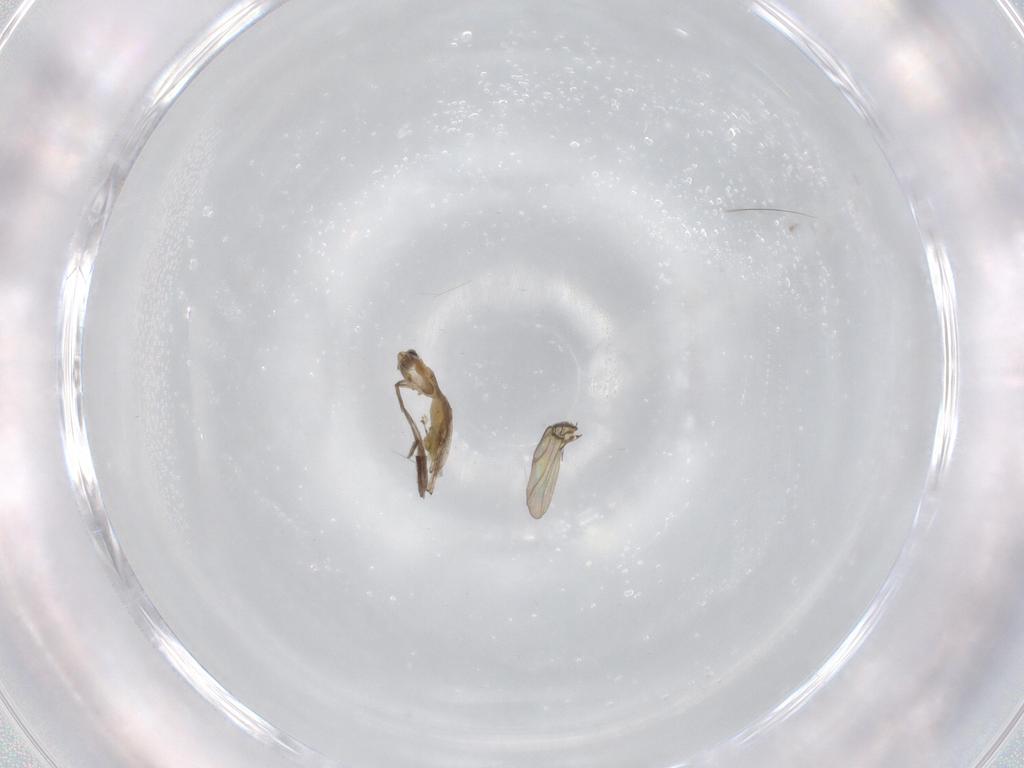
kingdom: Animalia
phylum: Arthropoda
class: Insecta
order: Diptera
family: Chironomidae
